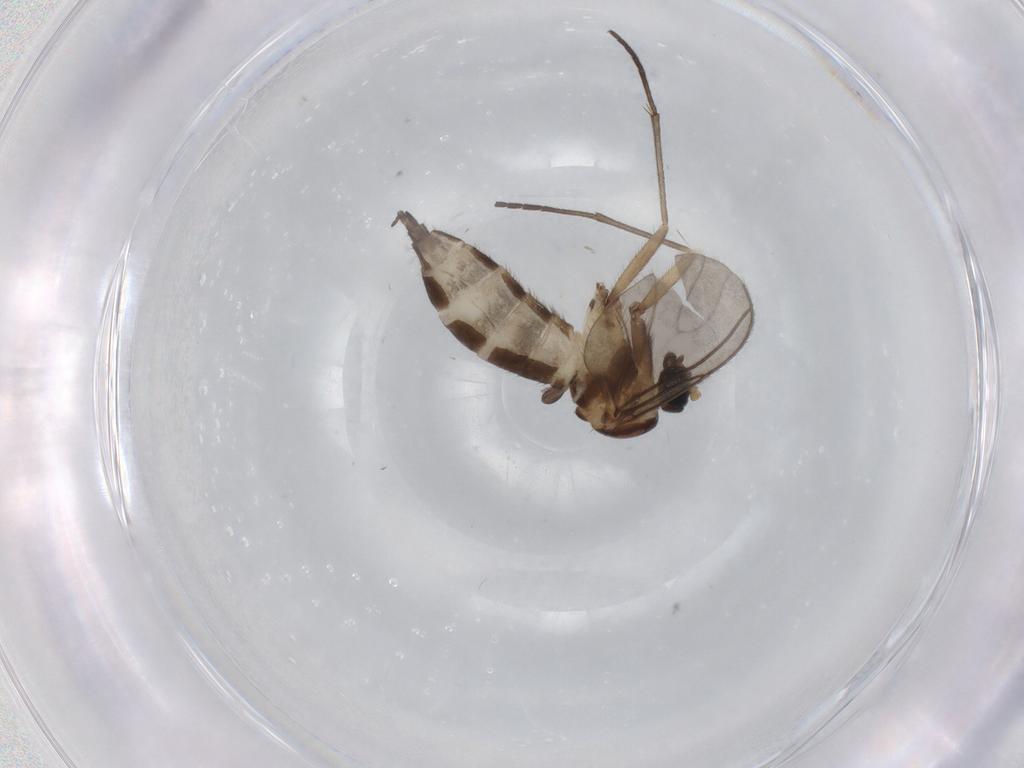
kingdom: Animalia
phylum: Arthropoda
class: Insecta
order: Diptera
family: Sciaridae
